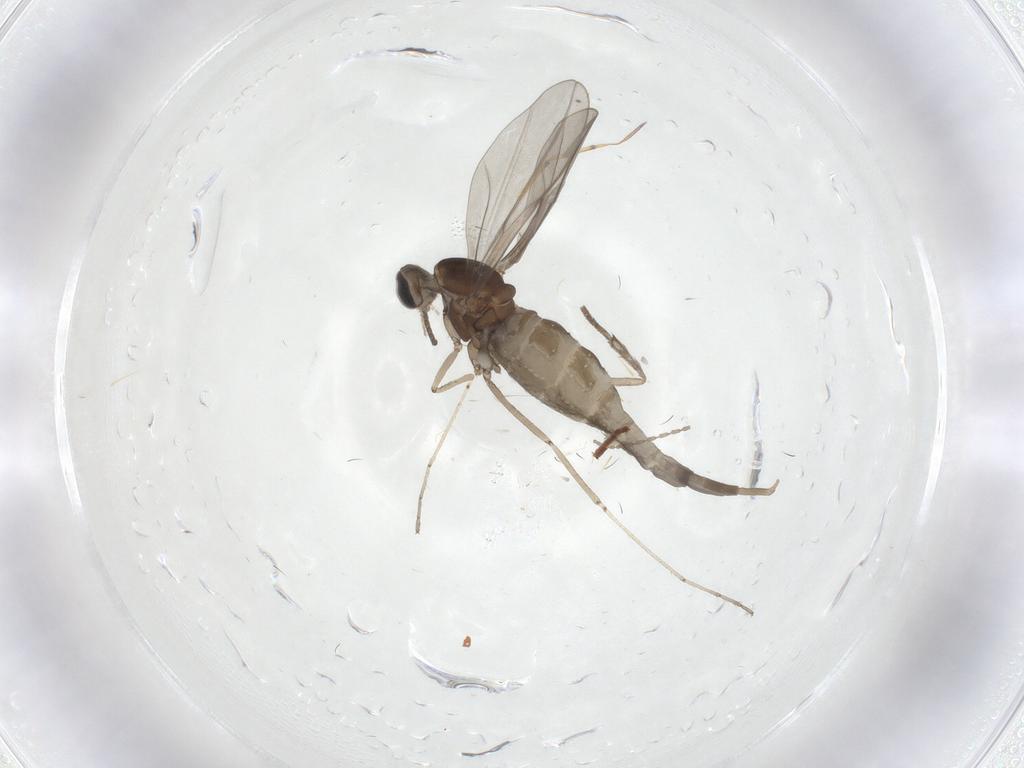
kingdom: Animalia
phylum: Arthropoda
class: Insecta
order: Diptera
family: Cecidomyiidae
